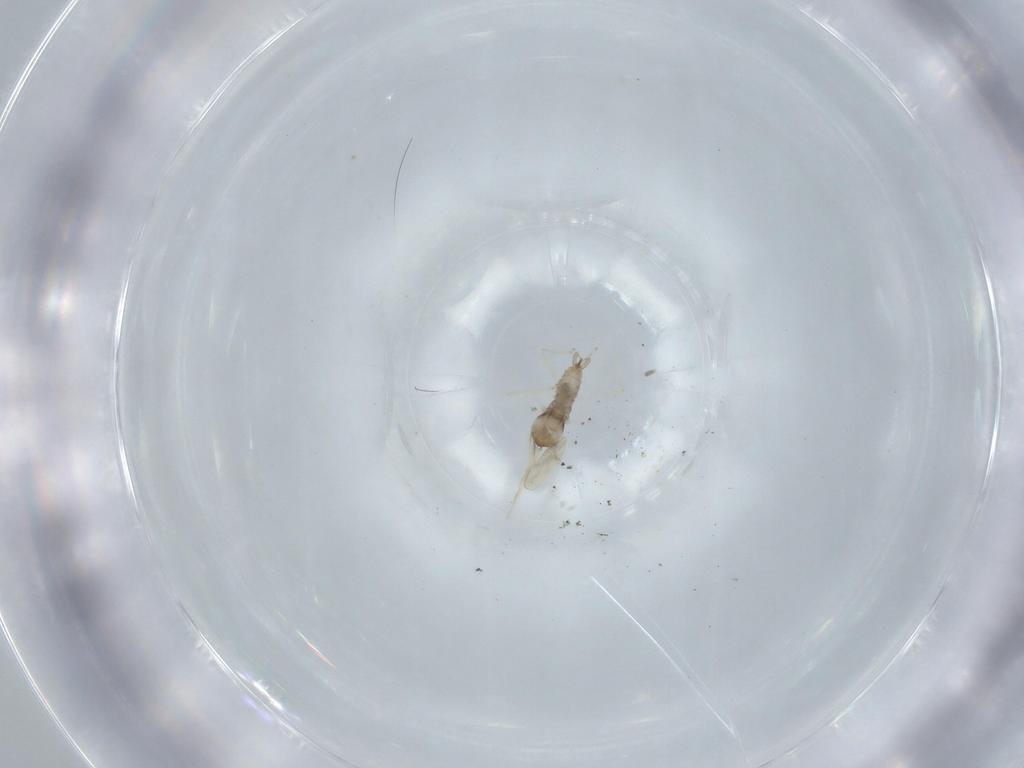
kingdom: Animalia
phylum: Arthropoda
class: Insecta
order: Diptera
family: Cecidomyiidae
